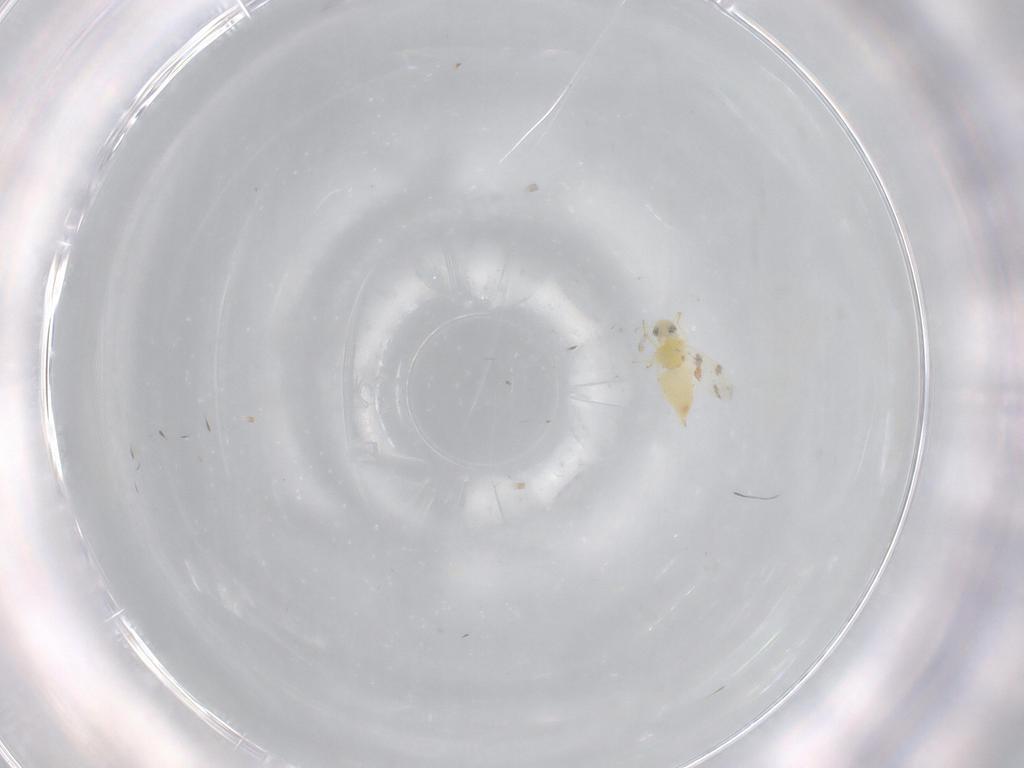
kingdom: Animalia
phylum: Arthropoda
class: Insecta
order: Hemiptera
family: Aleyrodidae
